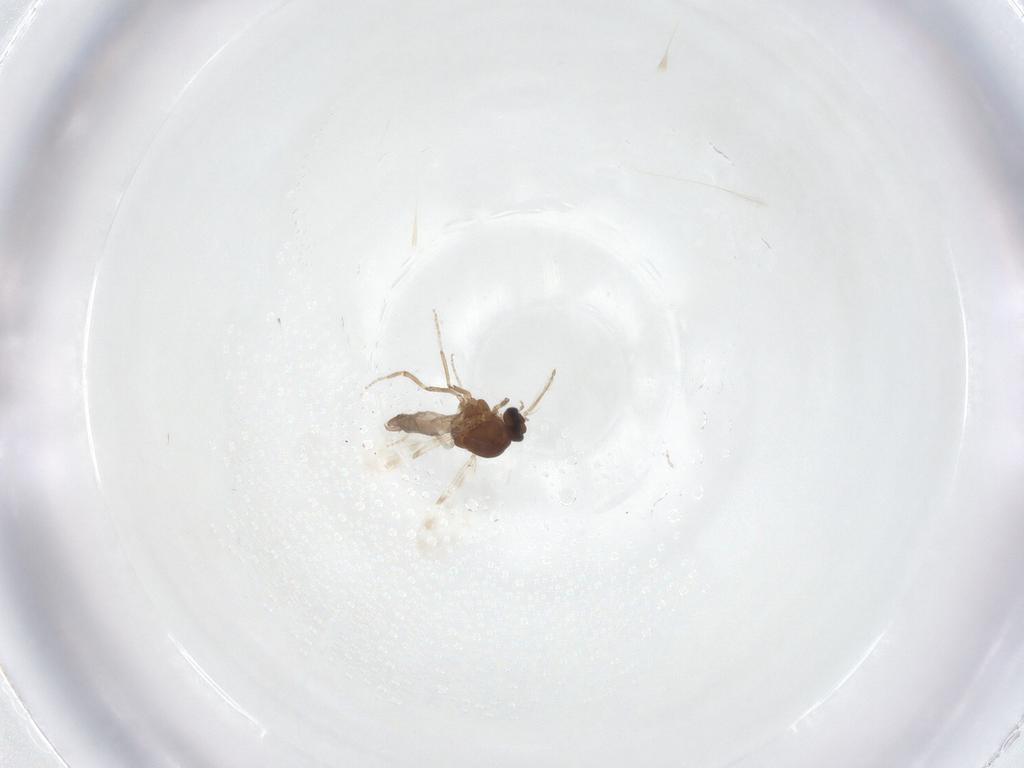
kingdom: Animalia
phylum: Arthropoda
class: Insecta
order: Diptera
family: Ceratopogonidae
